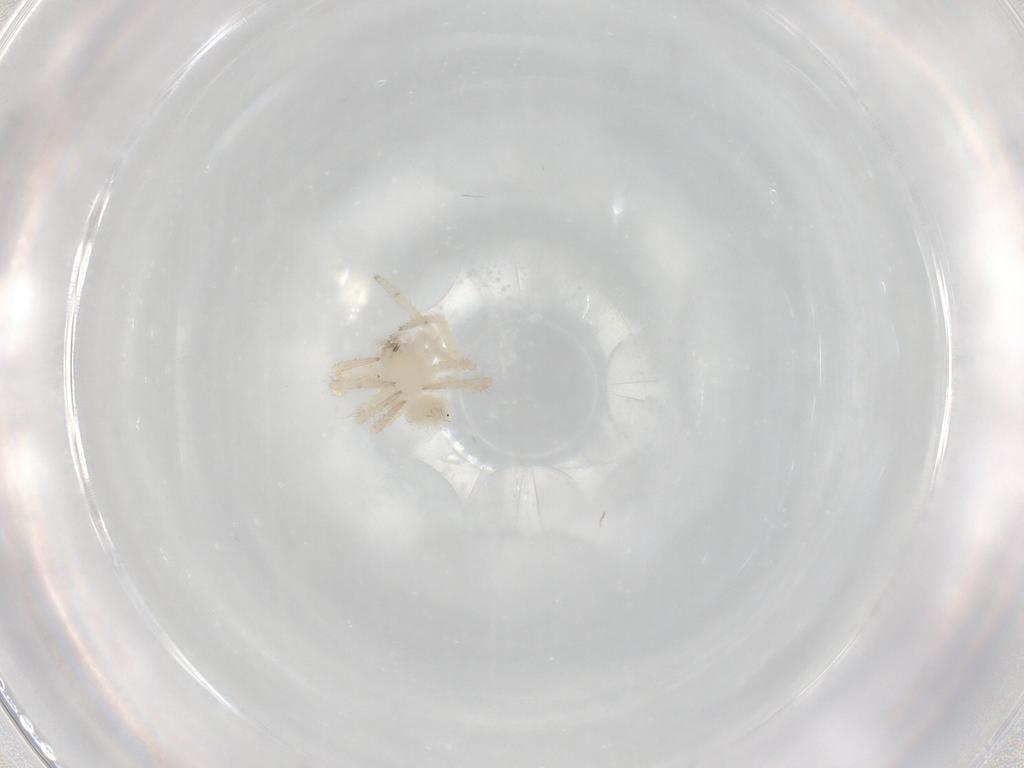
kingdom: Animalia
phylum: Arthropoda
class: Arachnida
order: Araneae
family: Theridiidae
